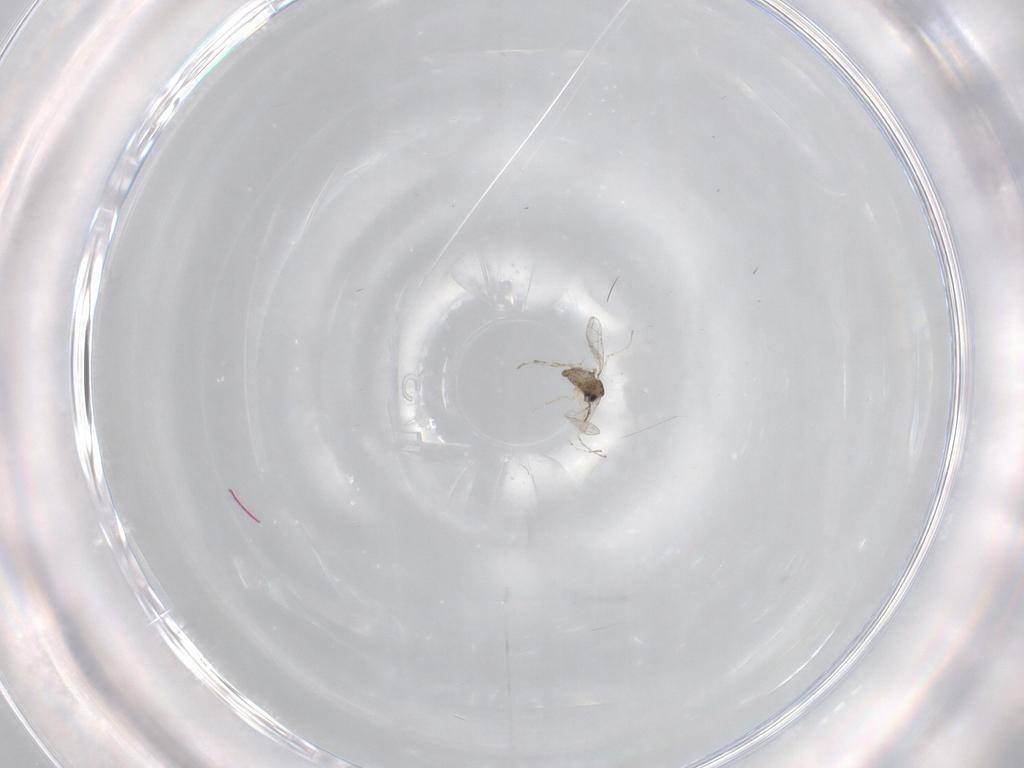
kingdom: Animalia
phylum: Arthropoda
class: Insecta
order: Diptera
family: Cecidomyiidae
